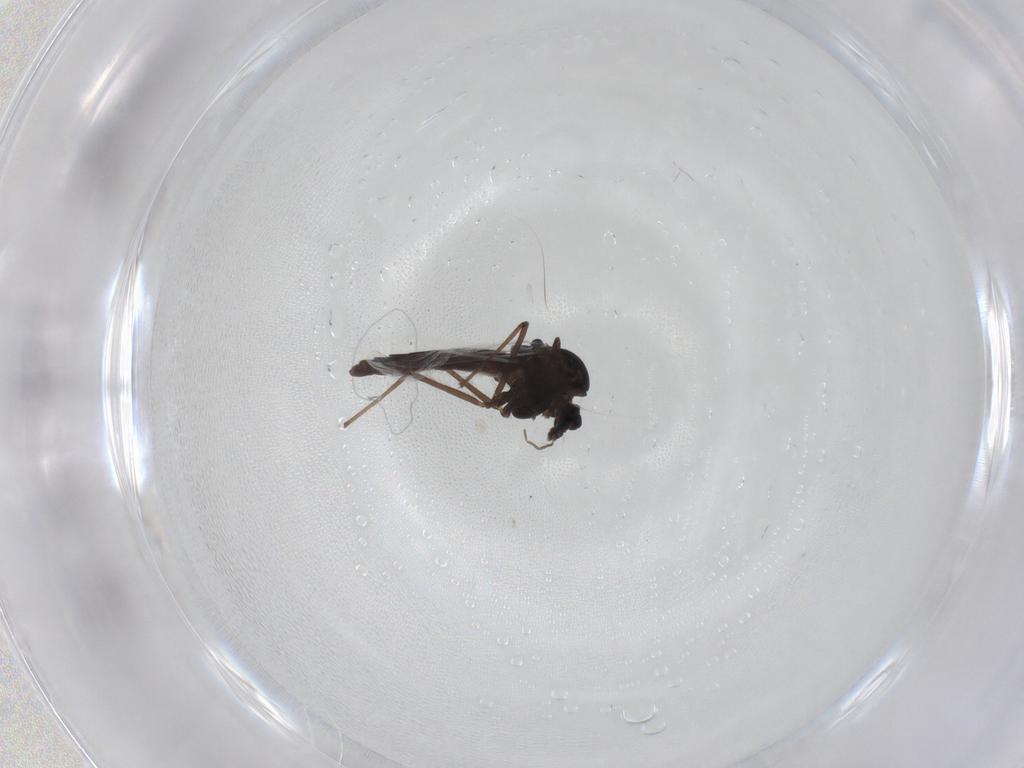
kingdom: Animalia
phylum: Arthropoda
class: Insecta
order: Diptera
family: Chironomidae
